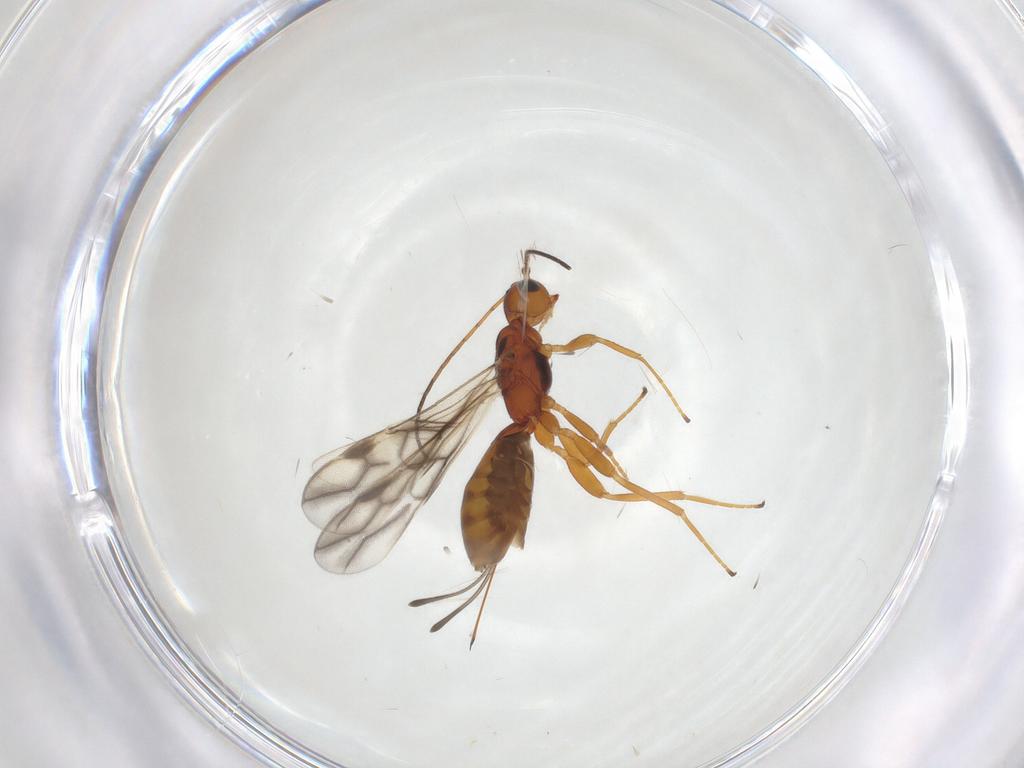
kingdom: Animalia
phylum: Arthropoda
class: Insecta
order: Hymenoptera
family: Braconidae
